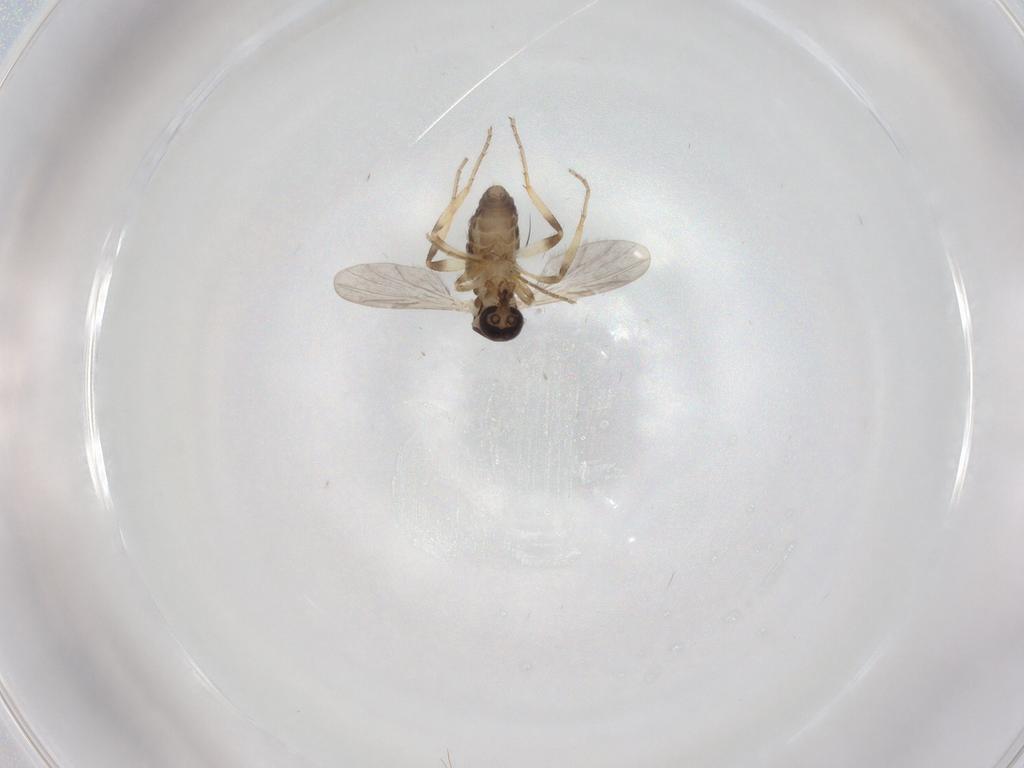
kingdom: Animalia
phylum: Arthropoda
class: Insecta
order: Diptera
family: Ceratopogonidae
